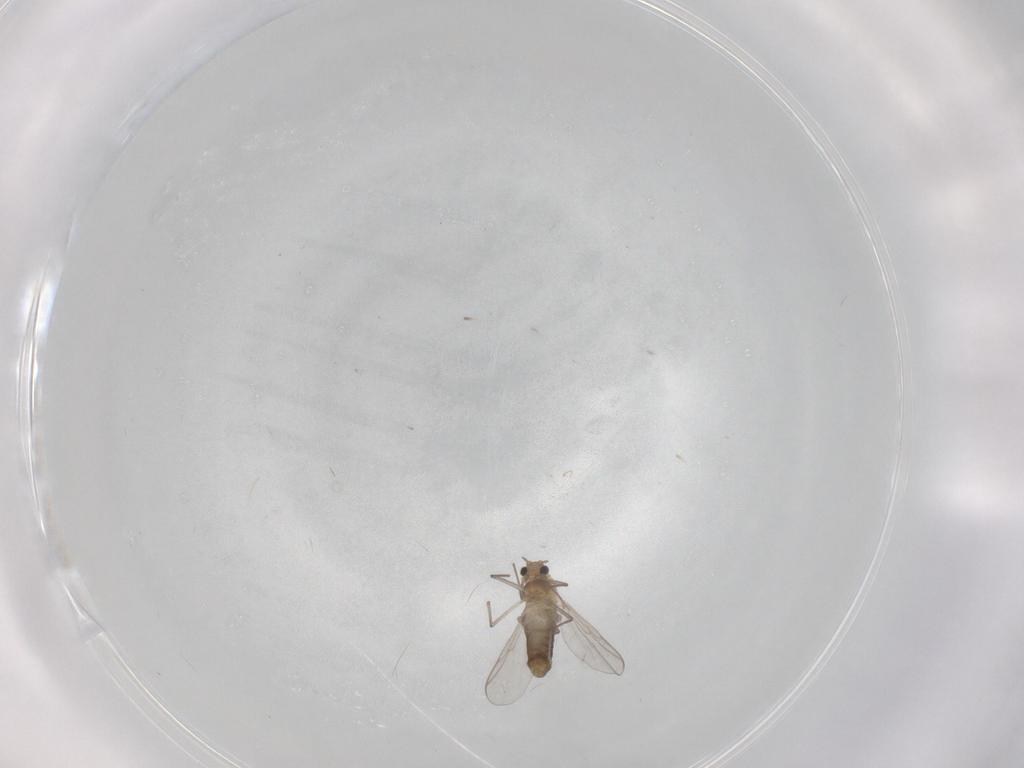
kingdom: Animalia
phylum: Arthropoda
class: Insecta
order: Diptera
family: Chironomidae
